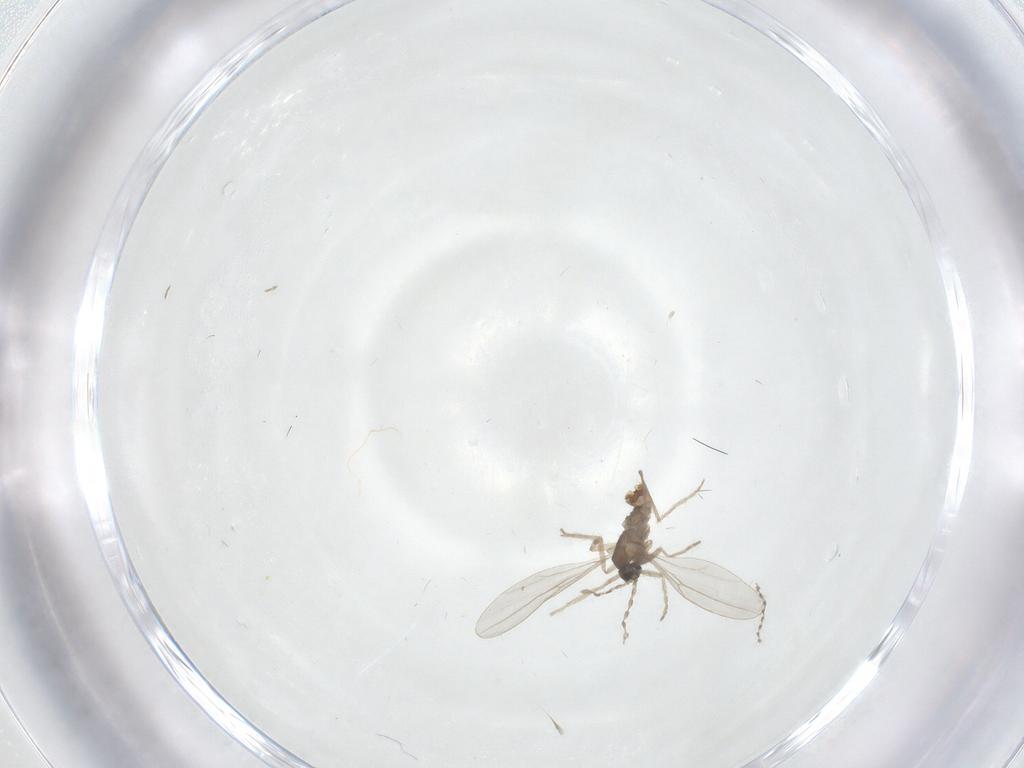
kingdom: Animalia
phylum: Arthropoda
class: Insecta
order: Diptera
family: Cecidomyiidae
